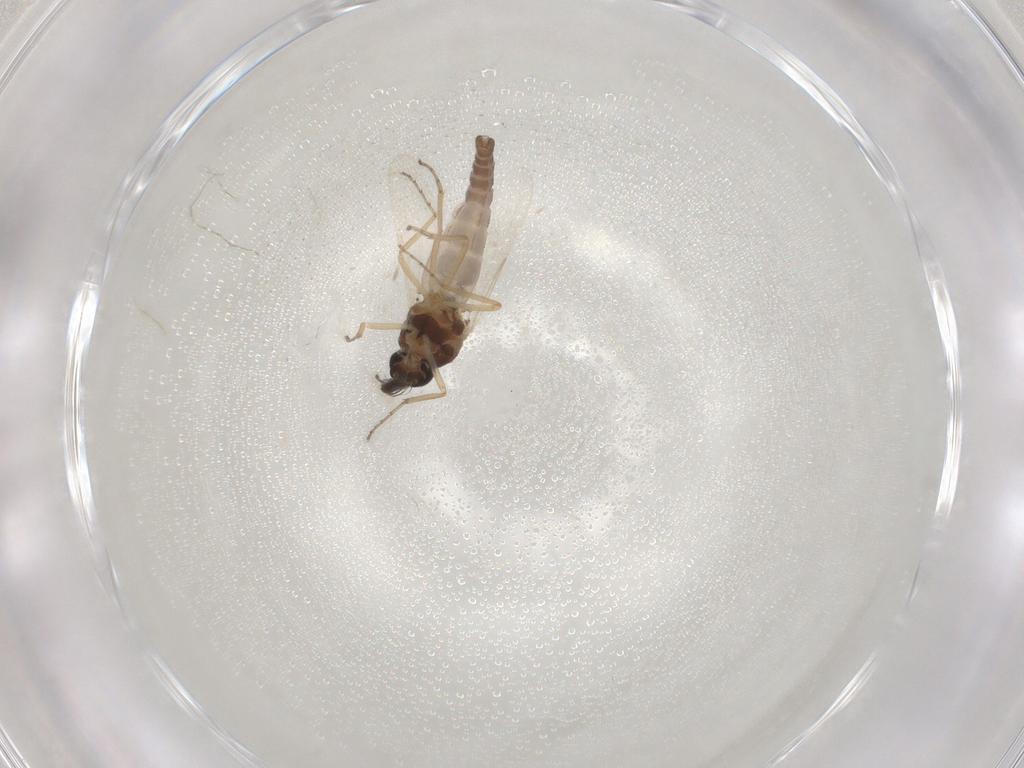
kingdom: Animalia
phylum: Arthropoda
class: Insecta
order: Diptera
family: Ceratopogonidae
